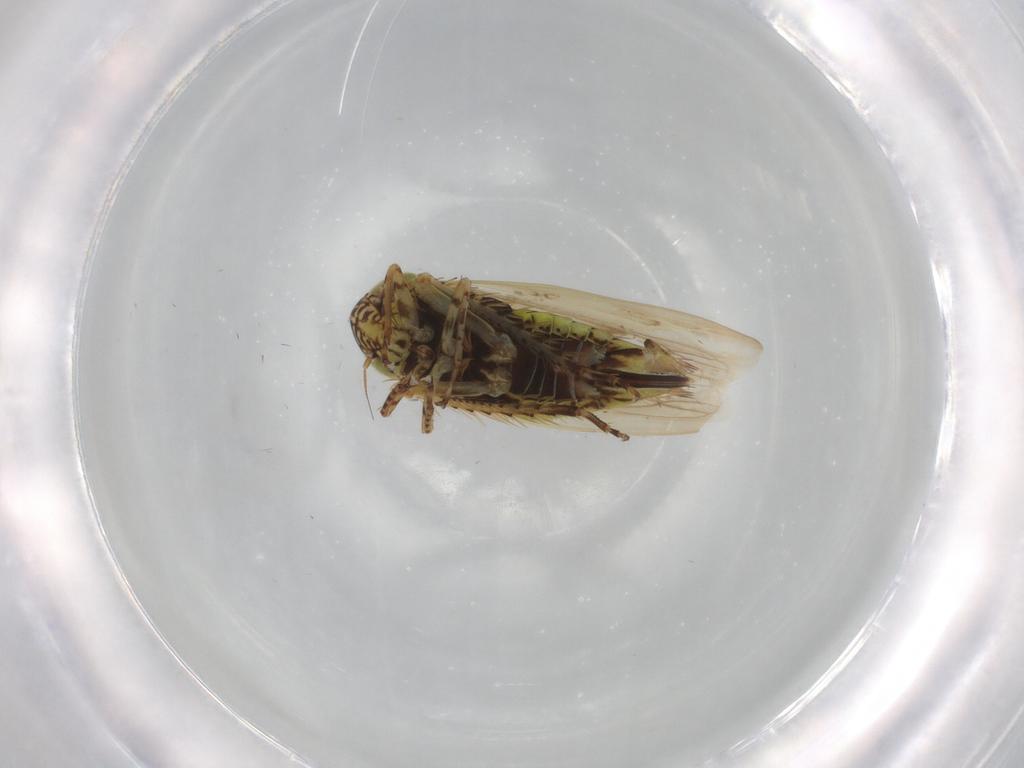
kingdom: Animalia
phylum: Arthropoda
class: Insecta
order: Hemiptera
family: Cicadellidae
